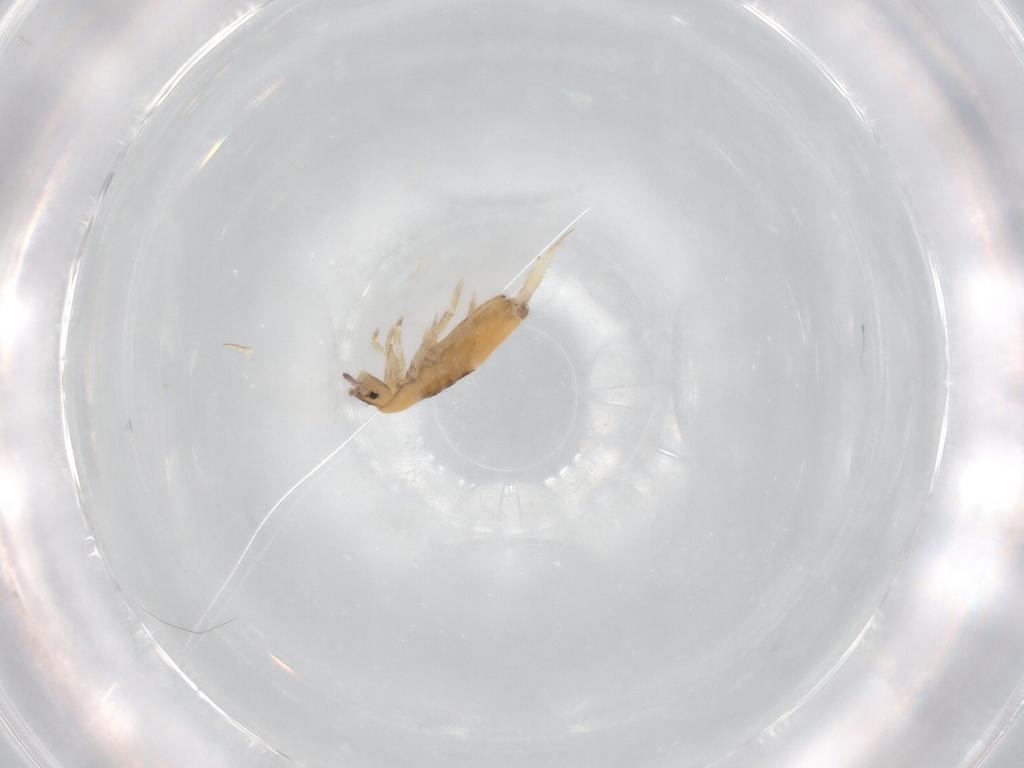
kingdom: Animalia
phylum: Arthropoda
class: Collembola
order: Entomobryomorpha
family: Entomobryidae
